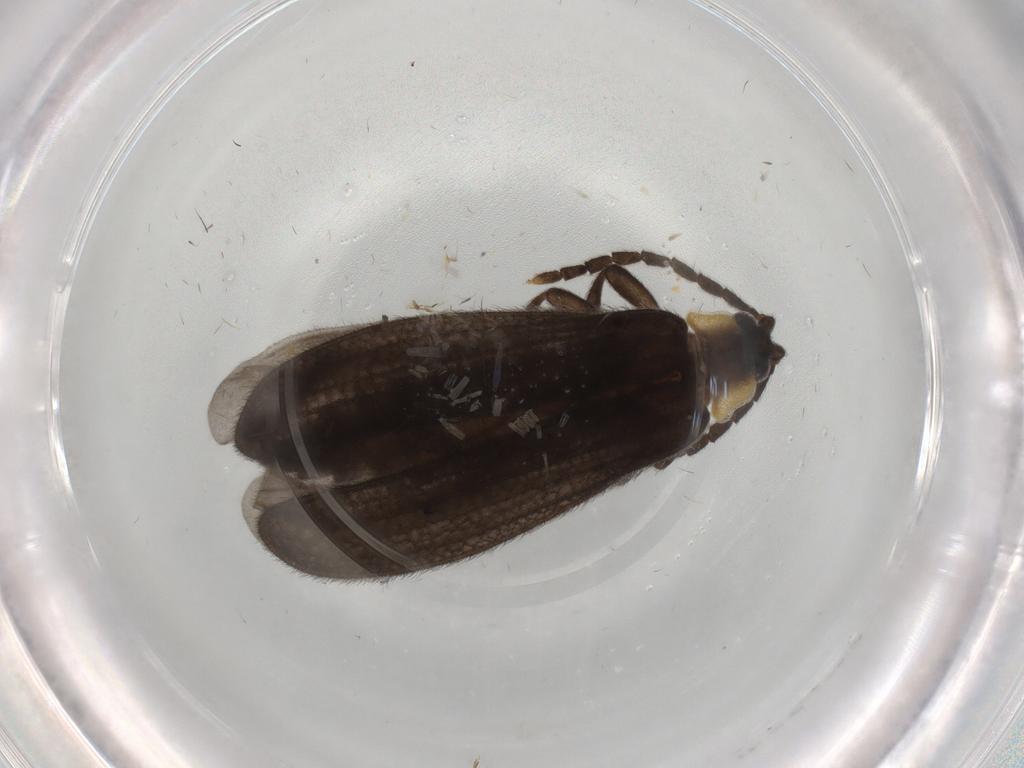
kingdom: Animalia
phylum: Arthropoda
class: Insecta
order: Coleoptera
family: Lycidae
